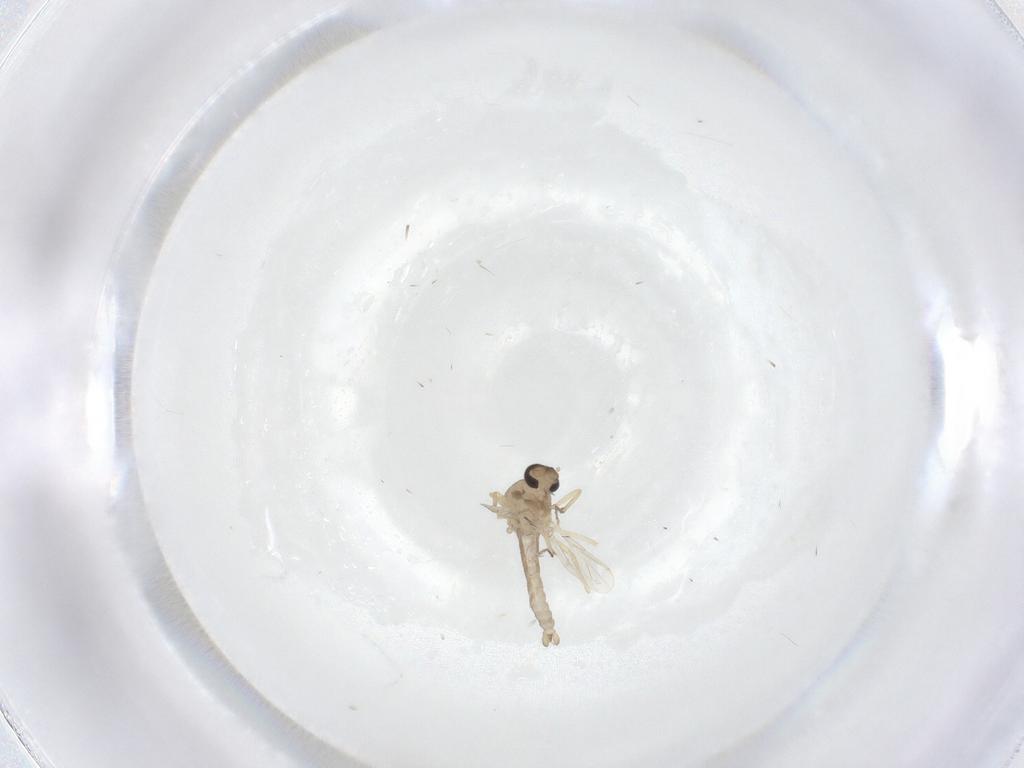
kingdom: Animalia
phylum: Arthropoda
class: Insecta
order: Diptera
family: Ceratopogonidae
